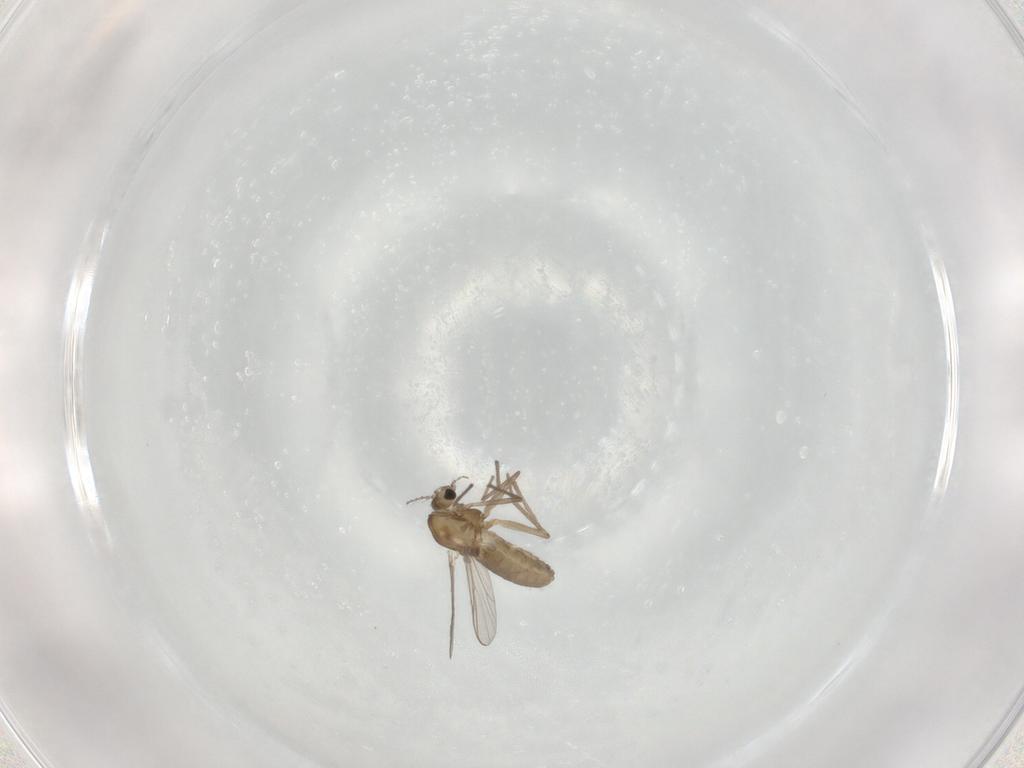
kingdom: Animalia
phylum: Arthropoda
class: Insecta
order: Diptera
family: Chironomidae
